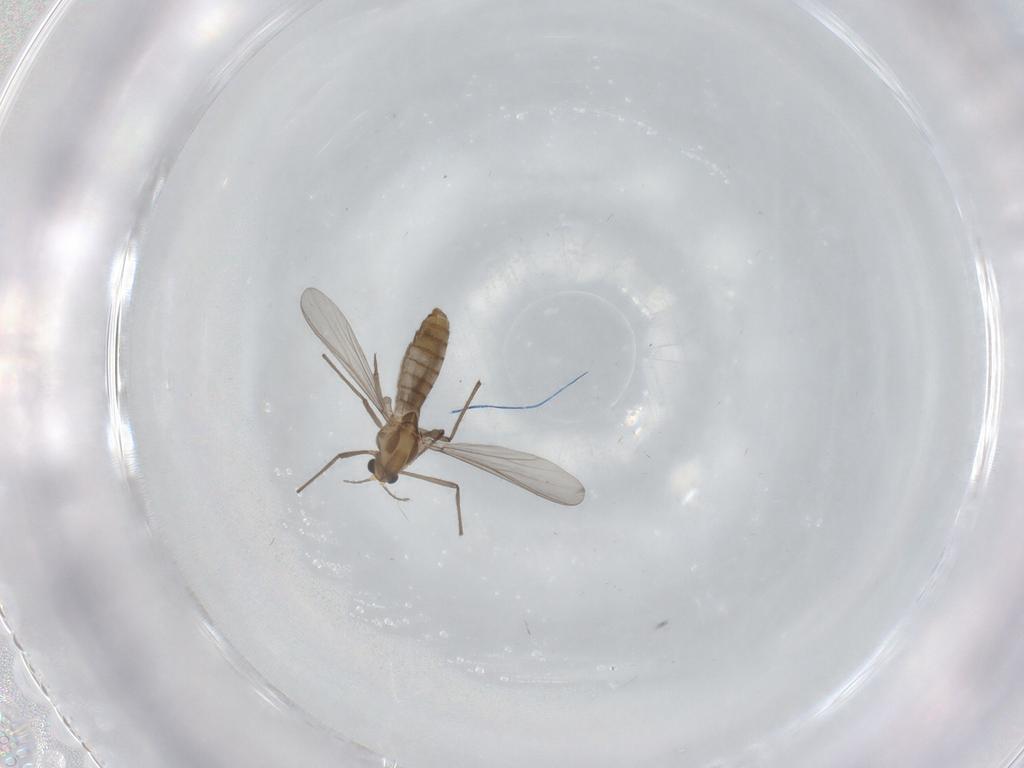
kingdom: Animalia
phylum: Arthropoda
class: Insecta
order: Diptera
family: Chironomidae
